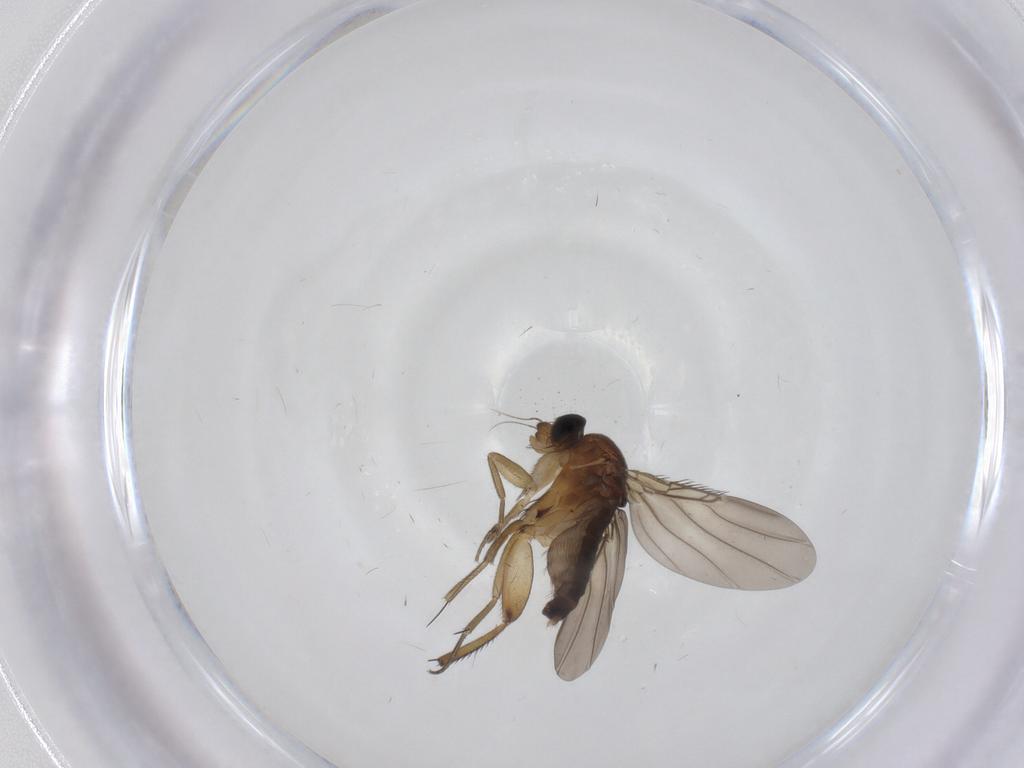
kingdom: Animalia
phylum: Arthropoda
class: Insecta
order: Diptera
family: Phoridae
